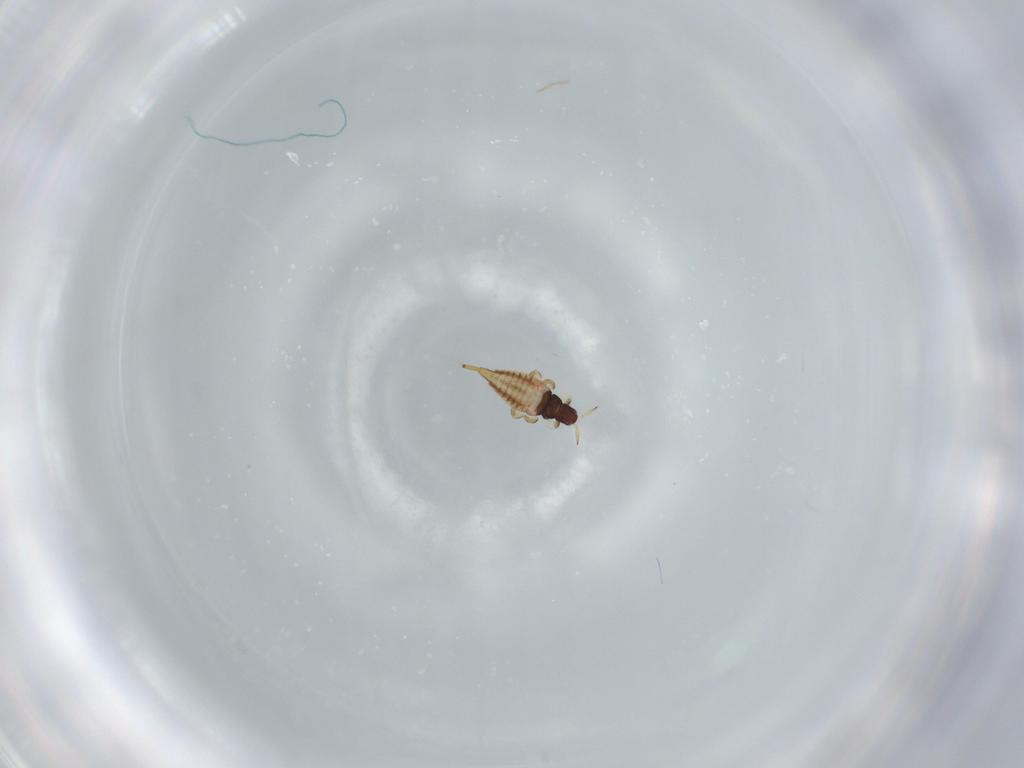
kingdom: Animalia
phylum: Arthropoda
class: Insecta
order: Thysanoptera
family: Phlaeothripidae
